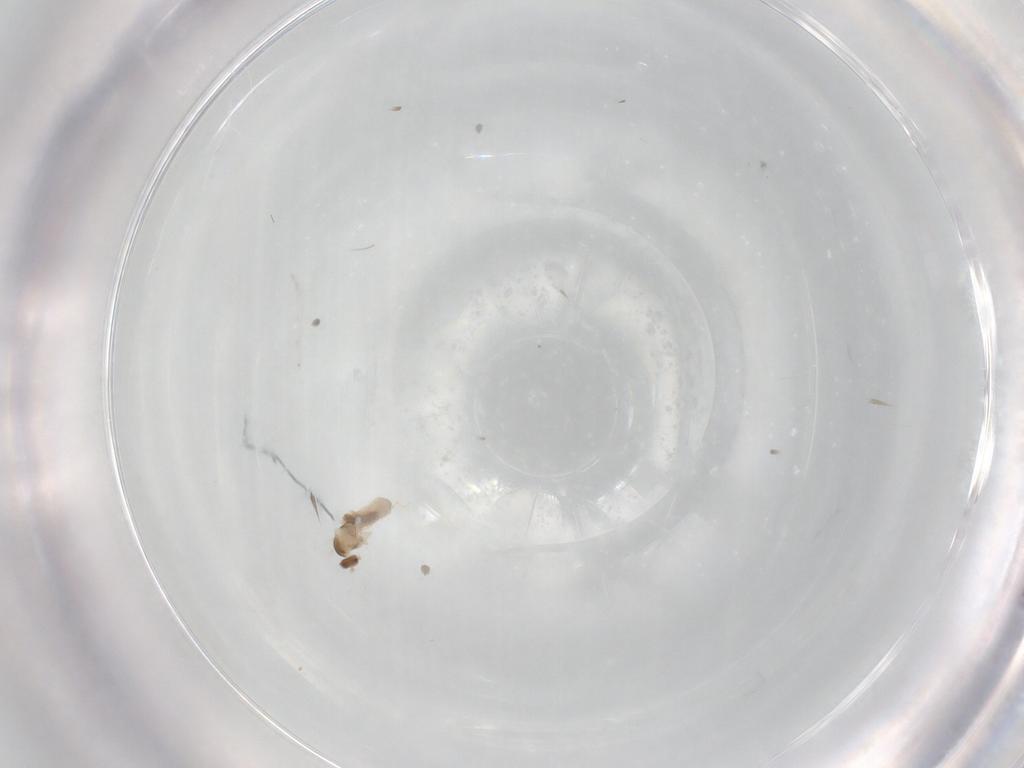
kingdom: Animalia
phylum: Arthropoda
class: Insecta
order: Diptera
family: Cecidomyiidae
